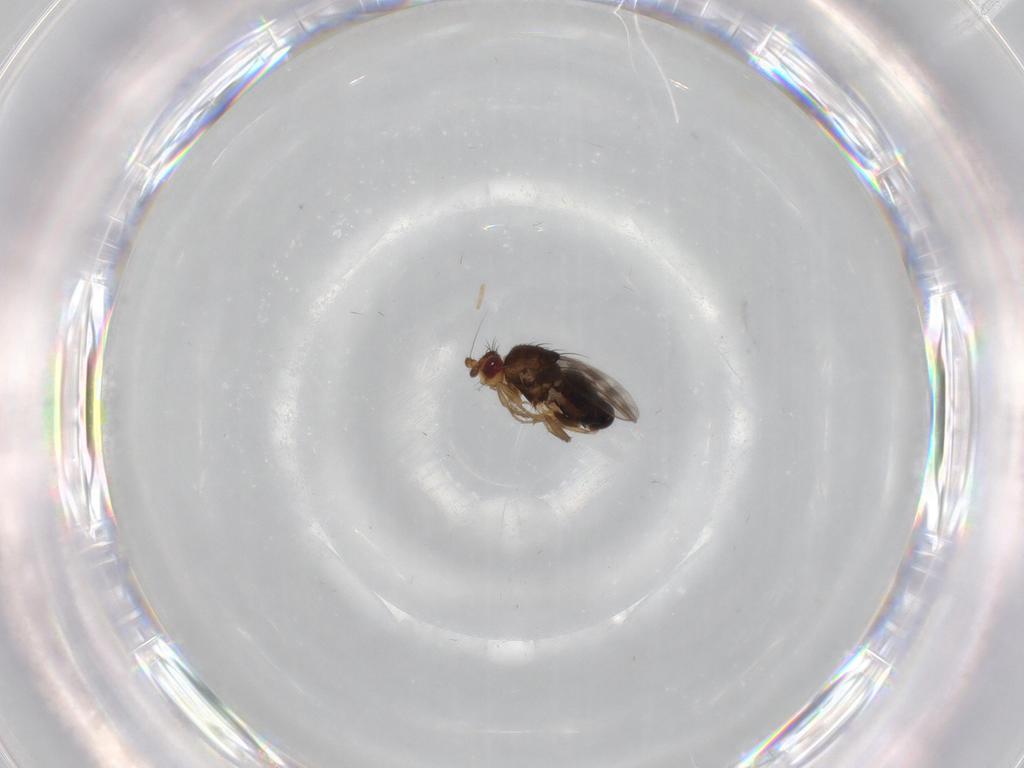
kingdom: Animalia
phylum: Arthropoda
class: Insecta
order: Diptera
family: Sphaeroceridae
